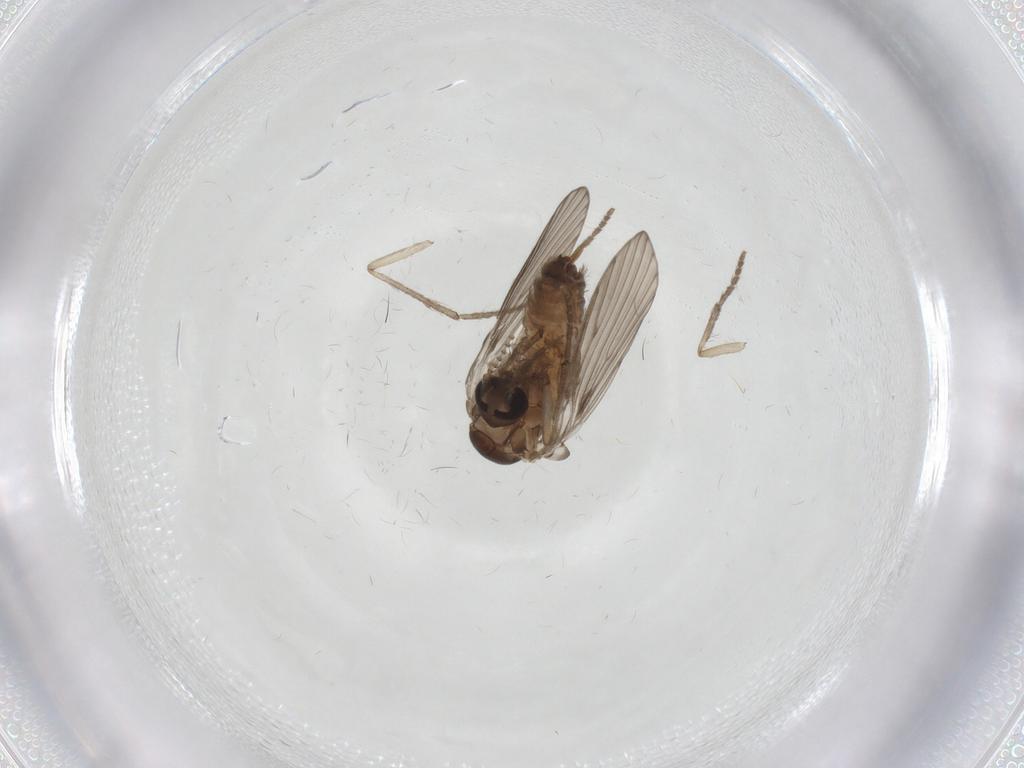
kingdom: Animalia
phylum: Arthropoda
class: Insecta
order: Diptera
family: Psychodidae
